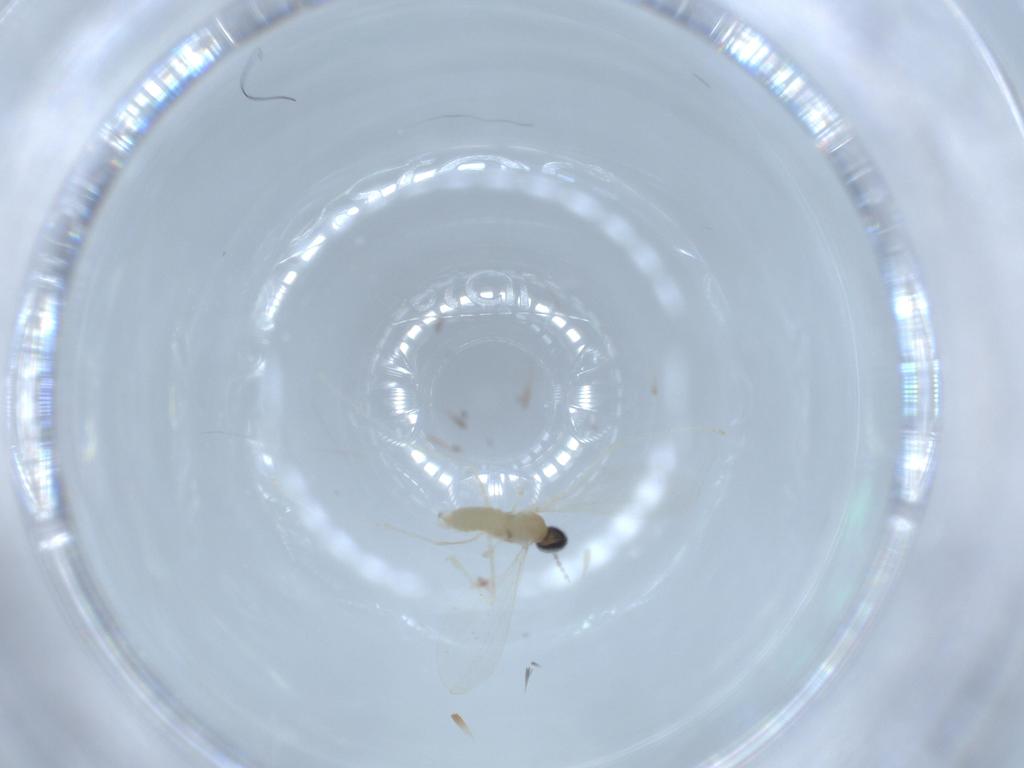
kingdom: Animalia
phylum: Arthropoda
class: Insecta
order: Diptera
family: Cecidomyiidae
